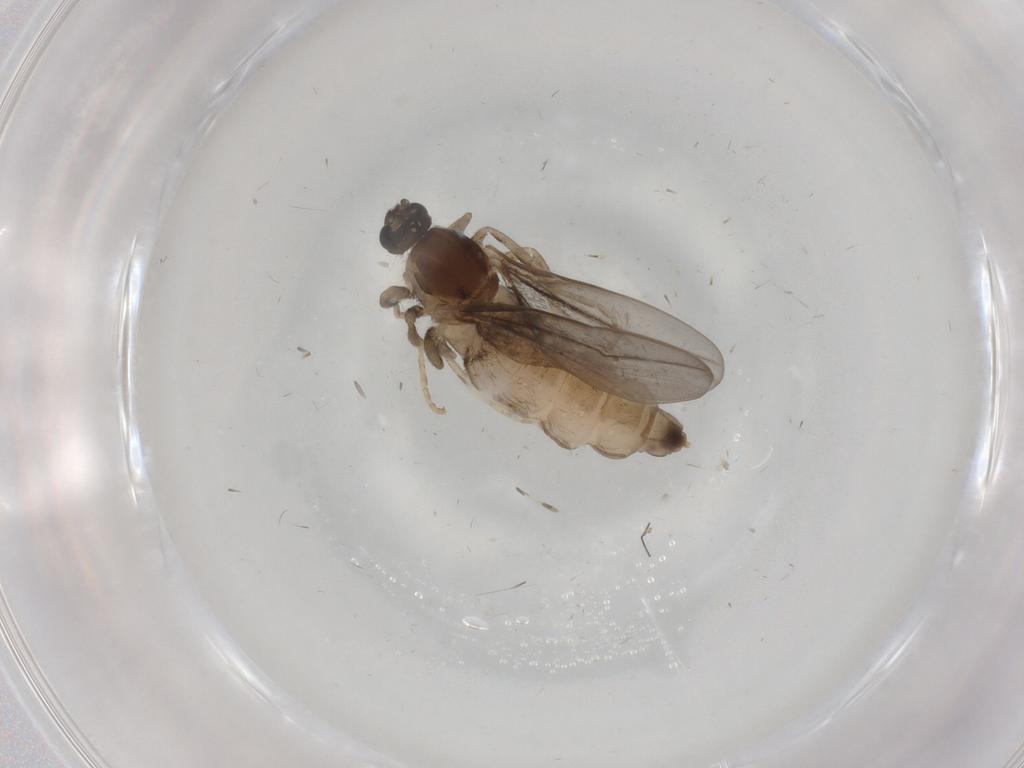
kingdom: Animalia
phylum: Arthropoda
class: Insecta
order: Diptera
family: Cecidomyiidae
